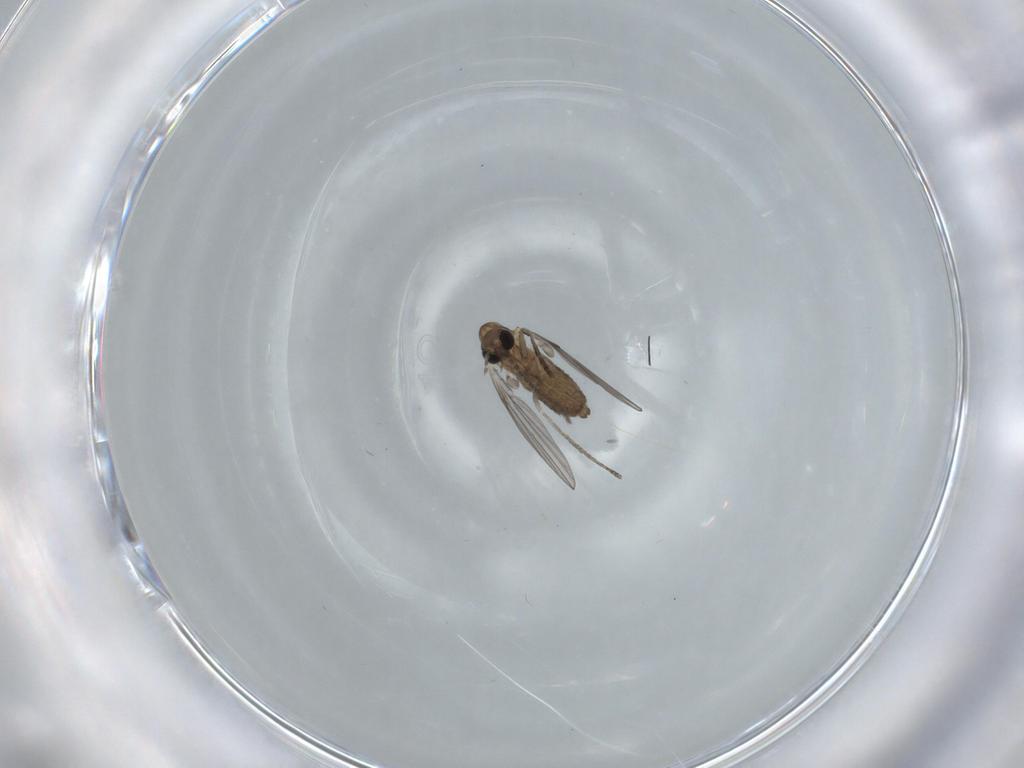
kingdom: Animalia
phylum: Arthropoda
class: Insecta
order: Diptera
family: Psychodidae
